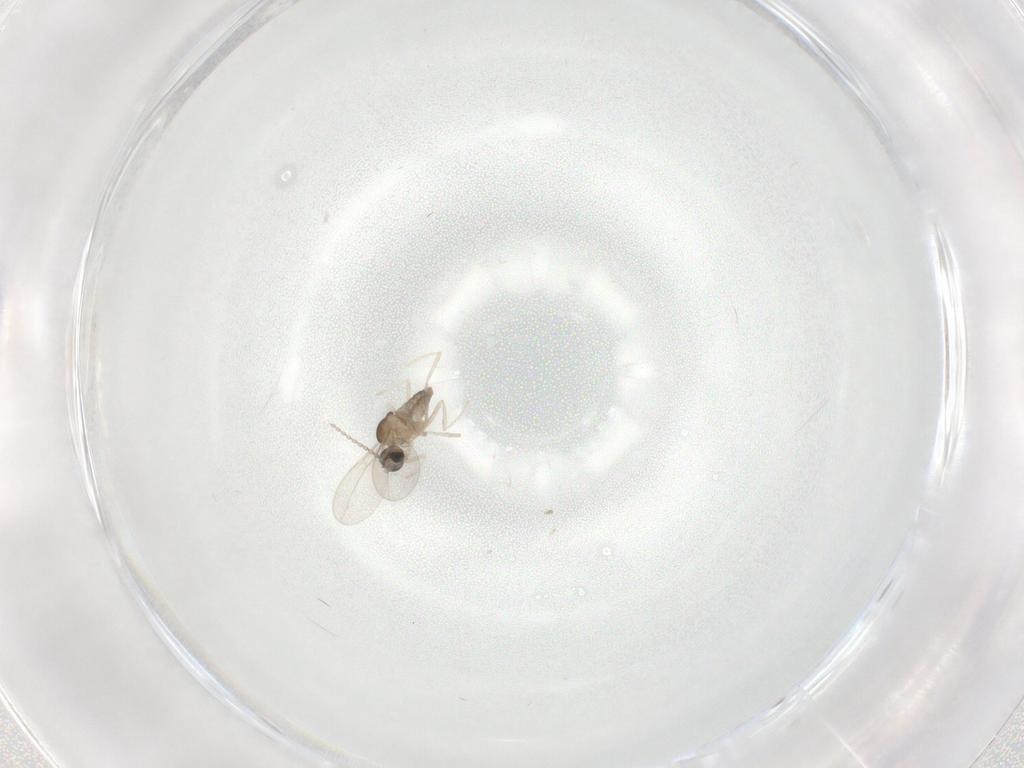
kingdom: Animalia
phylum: Arthropoda
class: Insecta
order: Diptera
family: Cecidomyiidae
